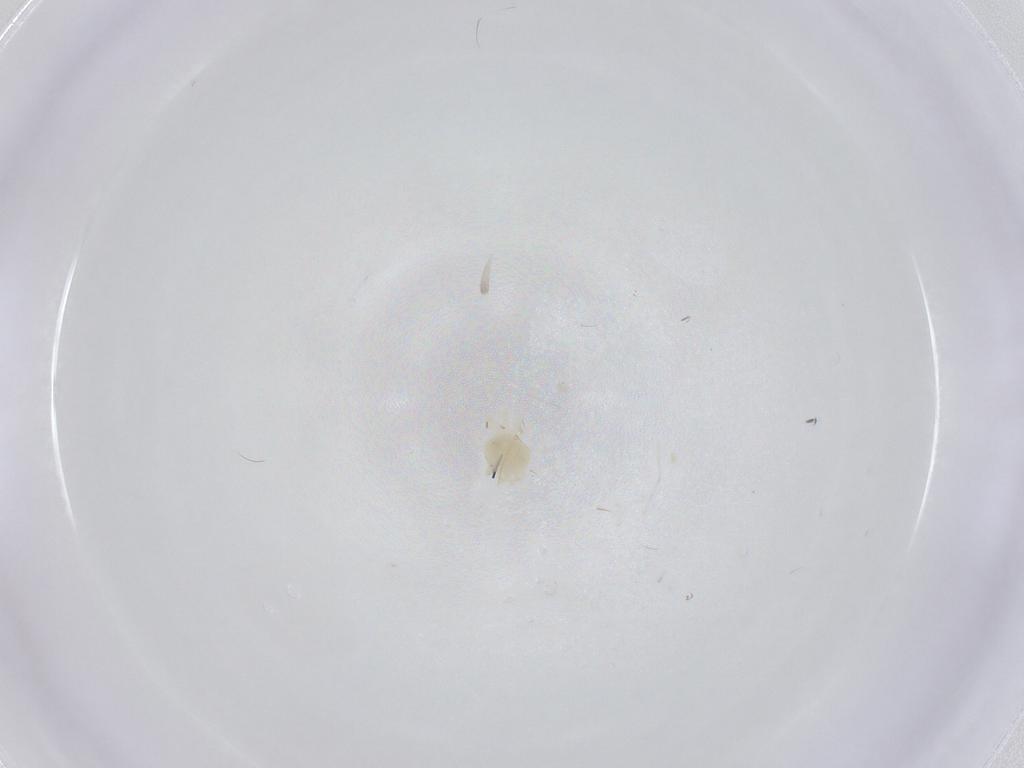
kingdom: Animalia
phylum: Arthropoda
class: Arachnida
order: Trombidiformes
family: Anystidae
